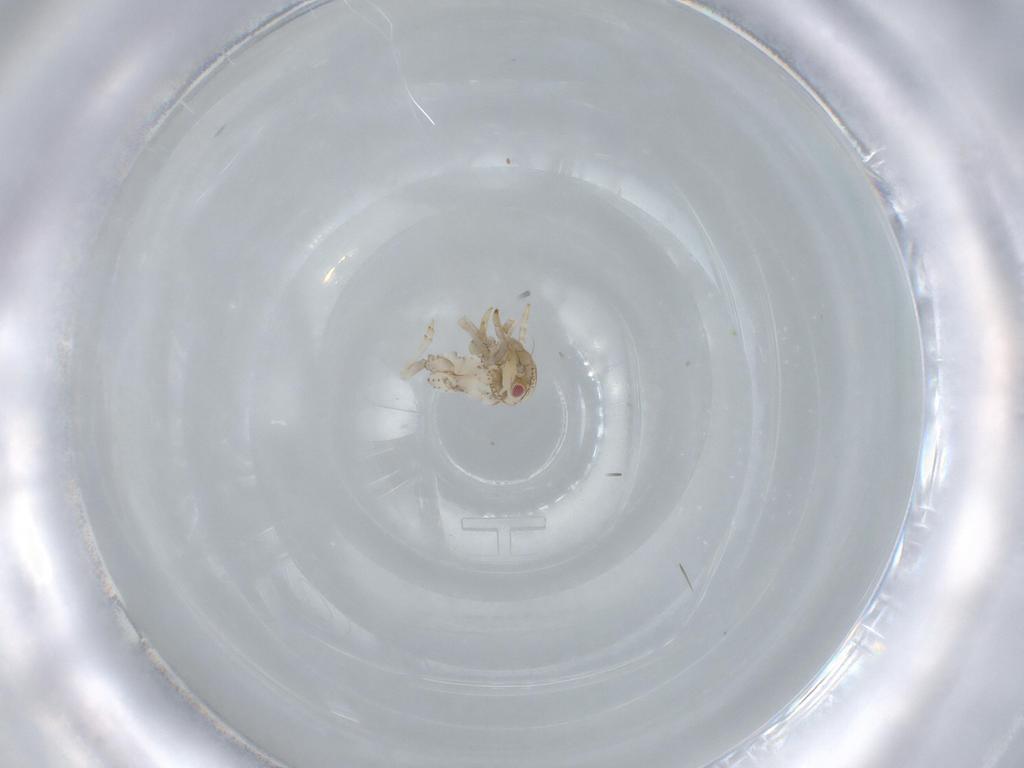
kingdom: Animalia
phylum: Arthropoda
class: Insecta
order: Hemiptera
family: Acanaloniidae
